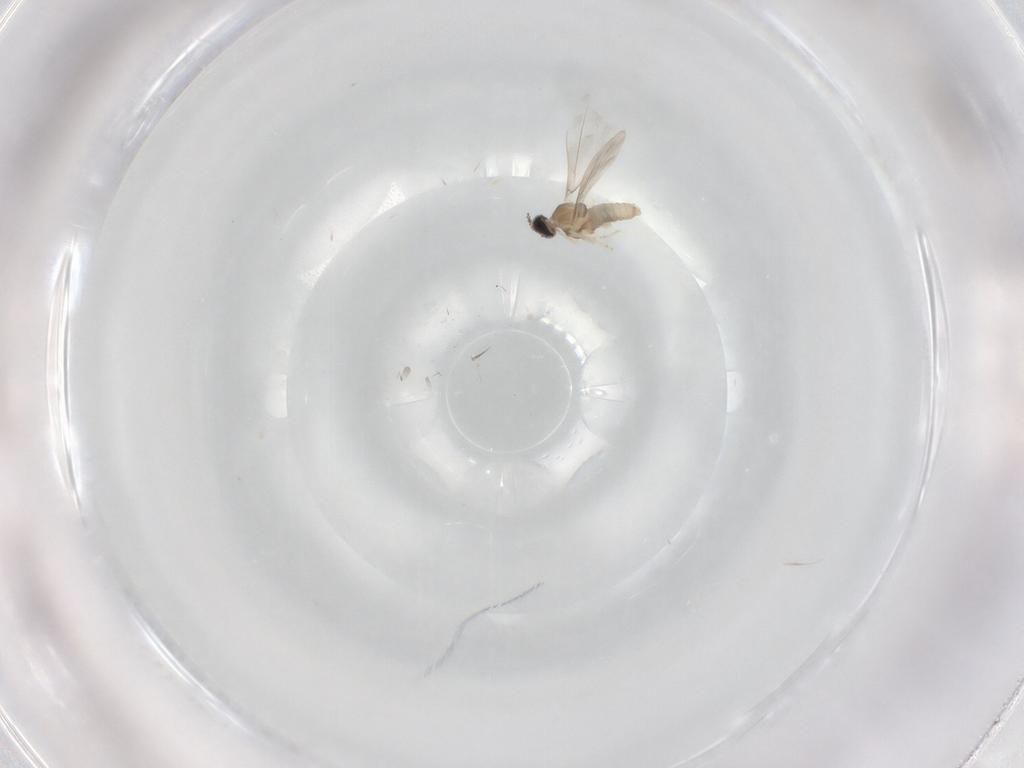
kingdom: Animalia
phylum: Arthropoda
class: Insecta
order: Diptera
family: Cecidomyiidae
